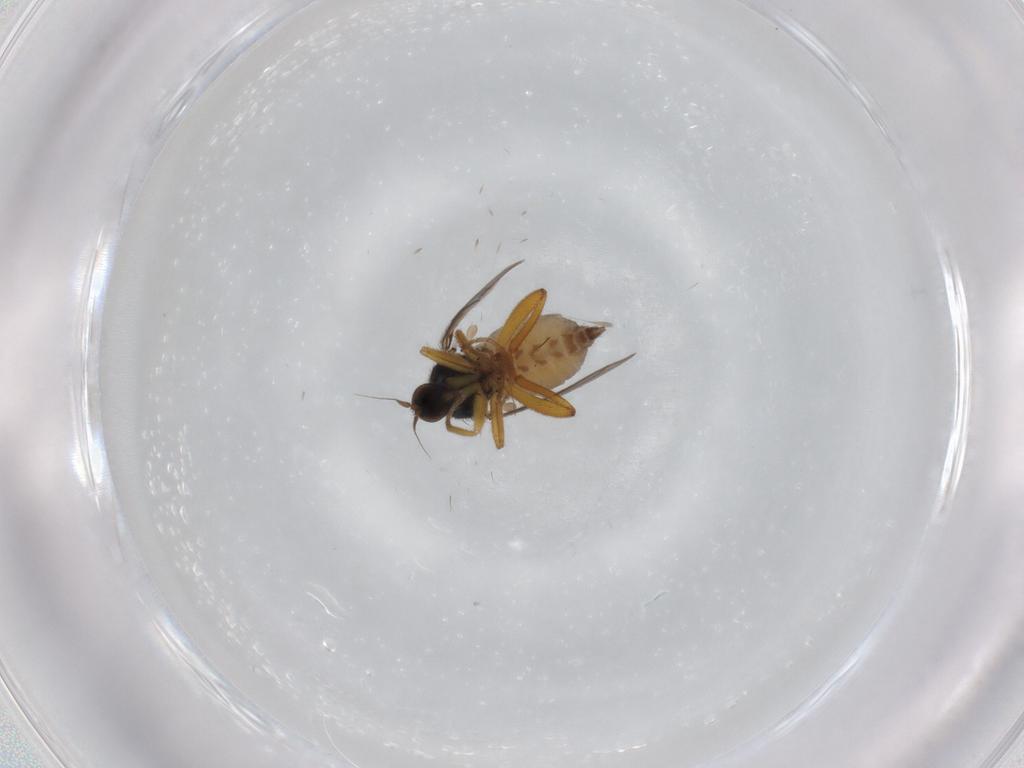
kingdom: Animalia
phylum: Arthropoda
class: Insecta
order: Diptera
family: Hybotidae
